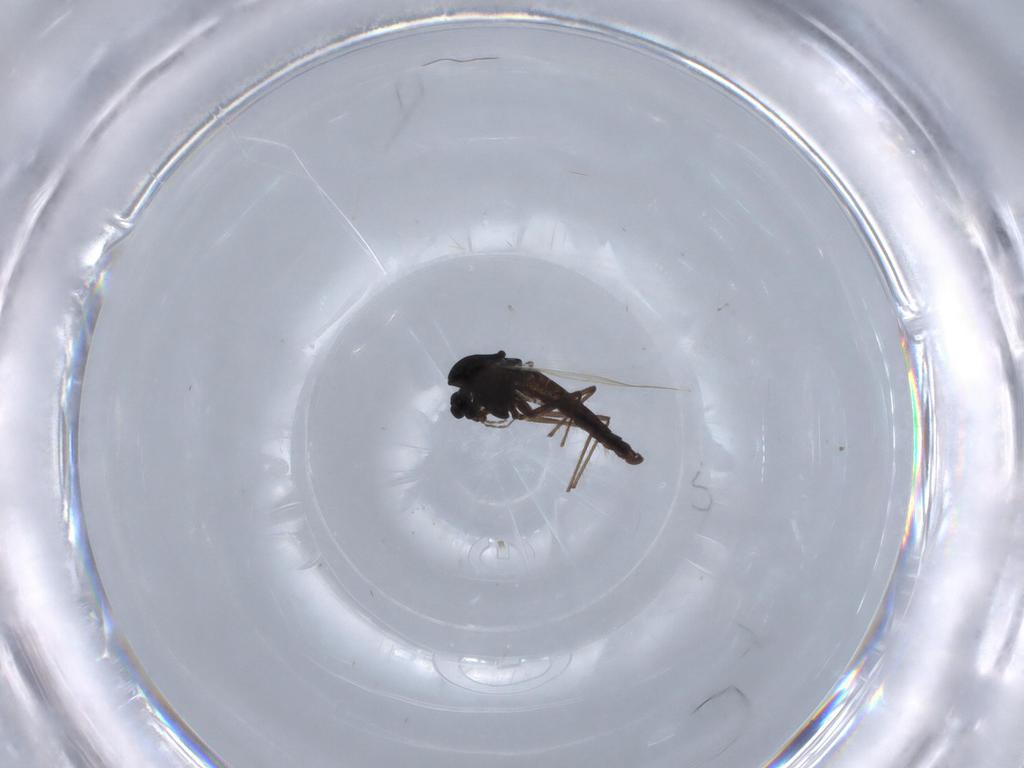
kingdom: Animalia
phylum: Arthropoda
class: Insecta
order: Diptera
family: Chironomidae
